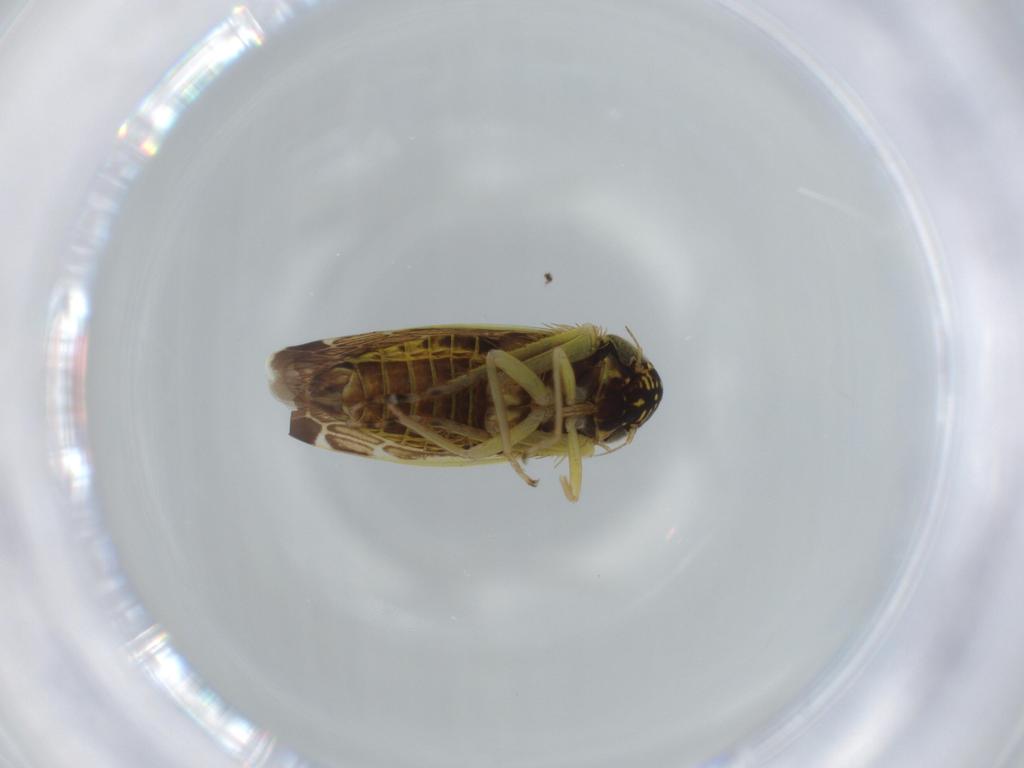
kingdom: Animalia
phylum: Arthropoda
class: Insecta
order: Hemiptera
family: Cicadellidae
